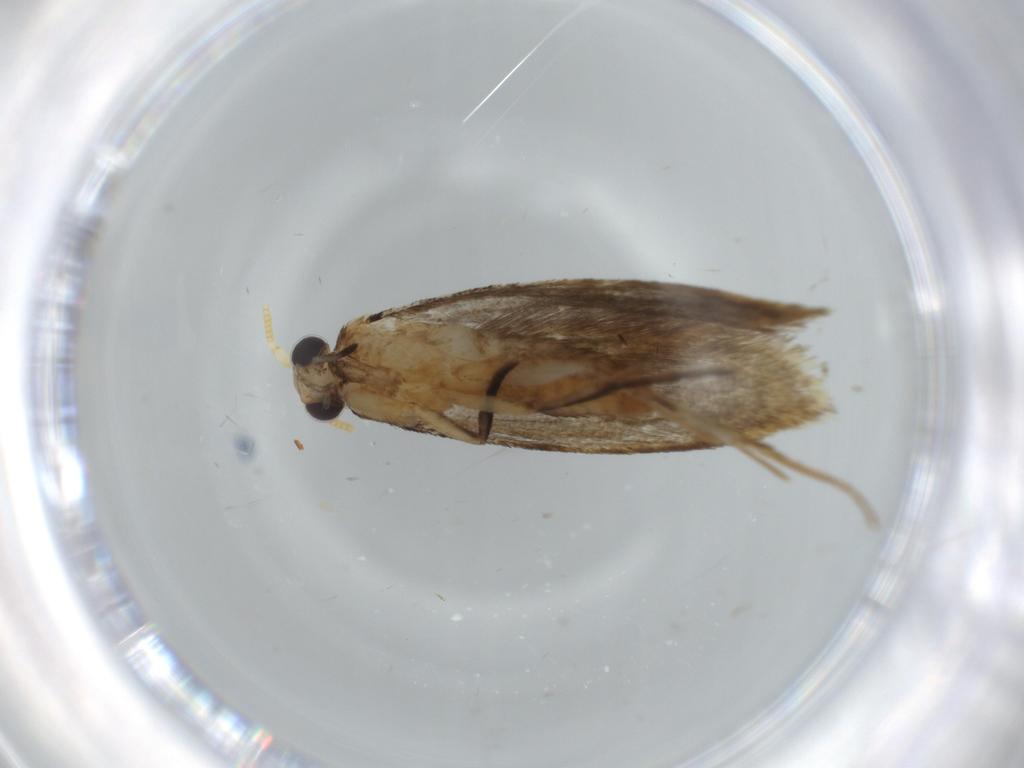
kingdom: Animalia
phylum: Arthropoda
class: Insecta
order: Lepidoptera
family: Tineidae
